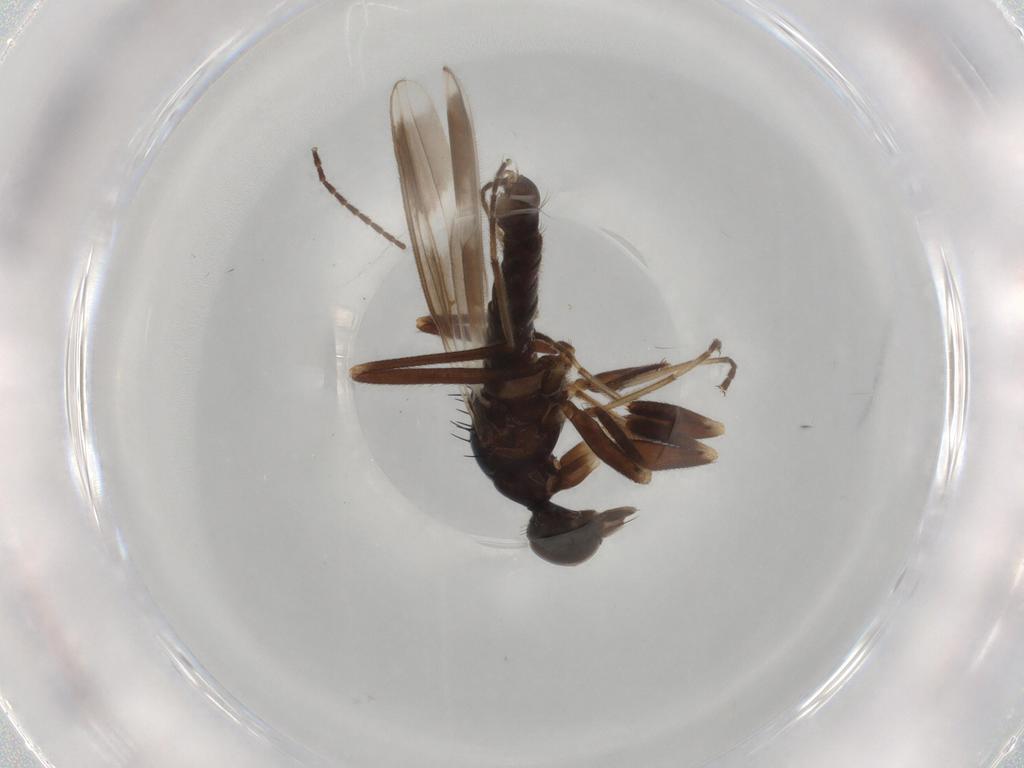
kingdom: Animalia
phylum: Arthropoda
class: Insecta
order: Diptera
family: Hybotidae
